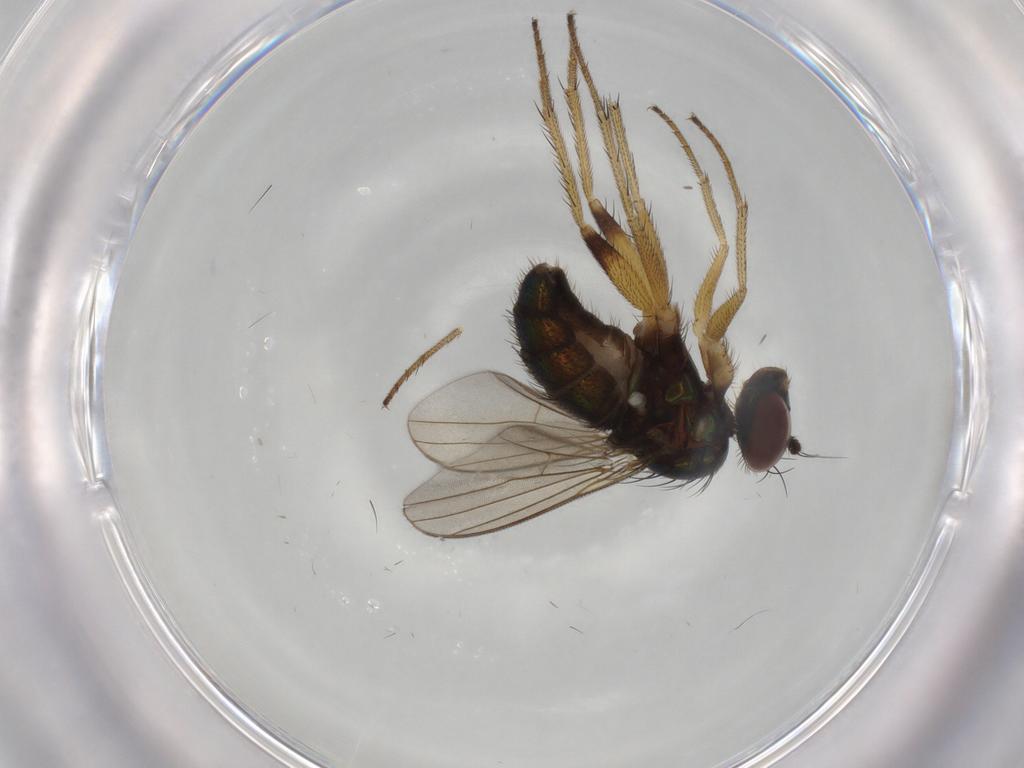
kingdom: Animalia
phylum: Arthropoda
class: Insecta
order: Diptera
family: Dolichopodidae
